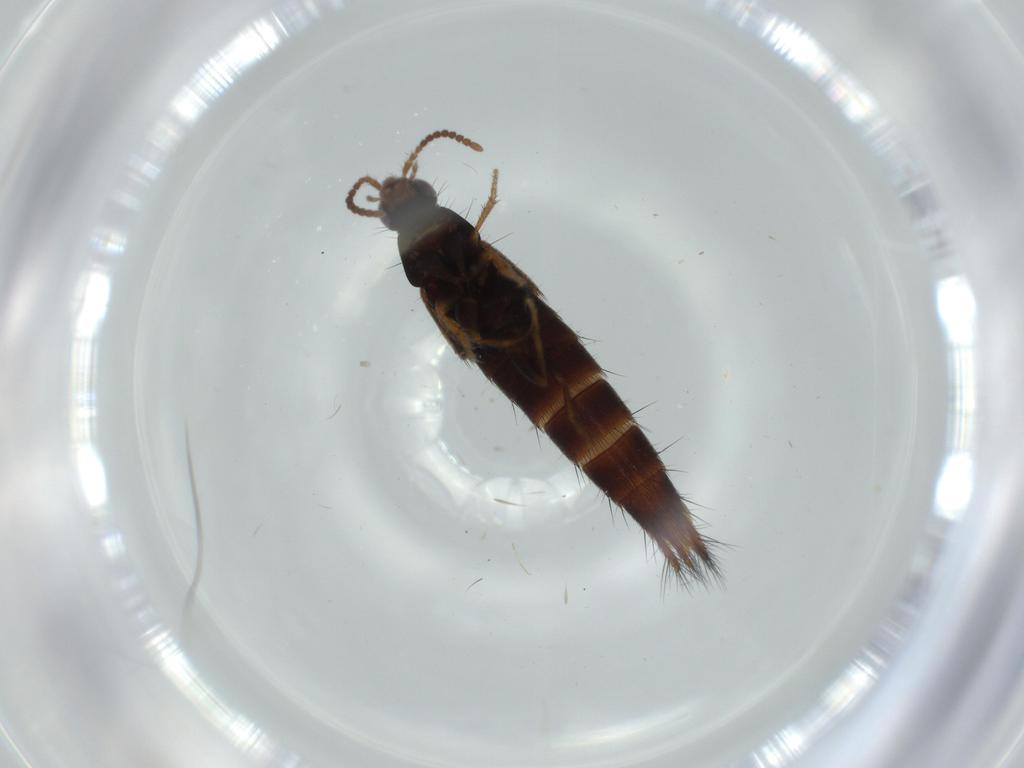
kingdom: Animalia
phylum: Arthropoda
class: Insecta
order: Coleoptera
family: Staphylinidae
